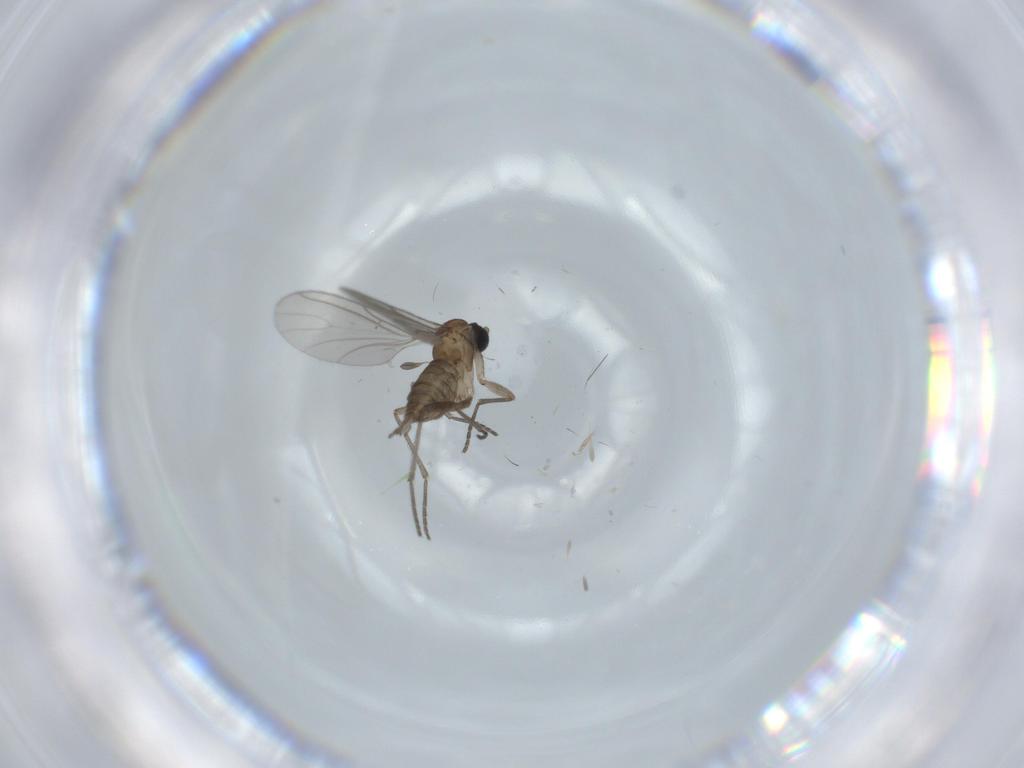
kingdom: Animalia
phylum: Arthropoda
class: Insecta
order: Diptera
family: Sciaridae
